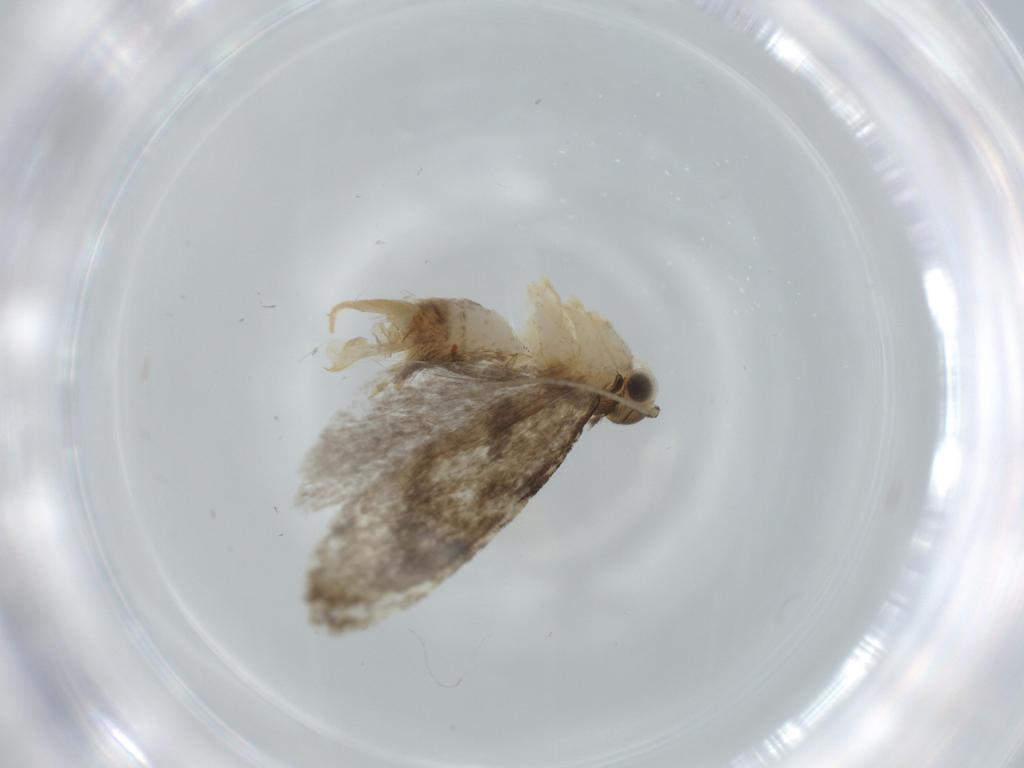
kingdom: Animalia
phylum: Arthropoda
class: Insecta
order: Lepidoptera
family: Tineidae
